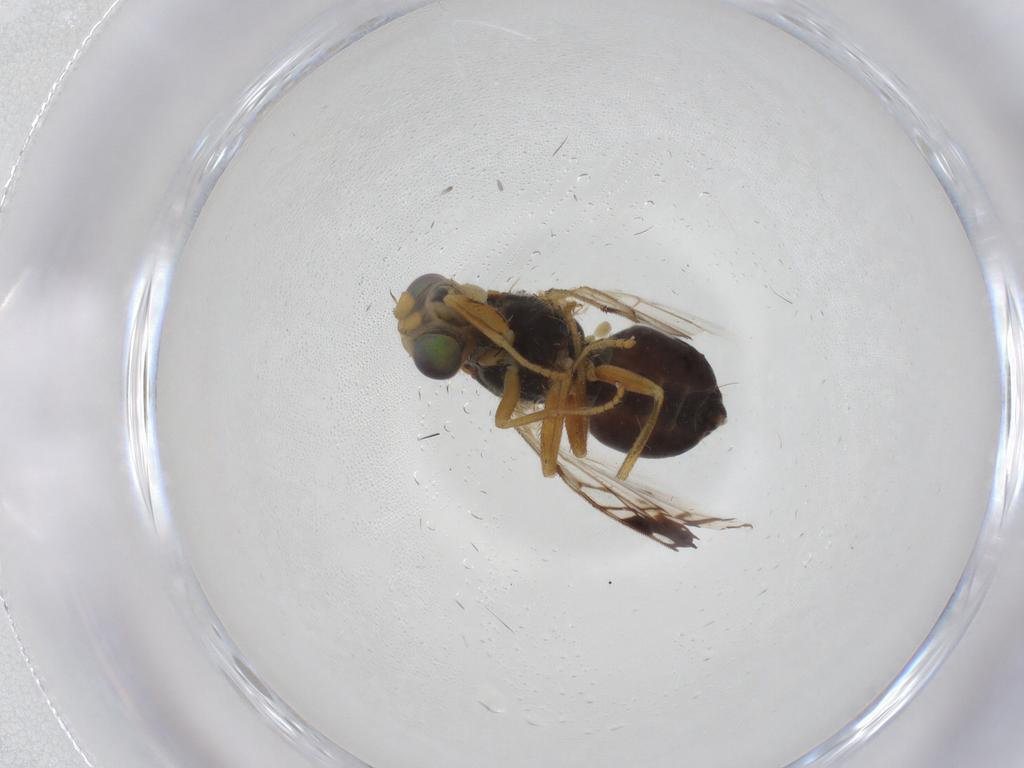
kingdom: Animalia
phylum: Arthropoda
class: Insecta
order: Diptera
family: Tephritidae
